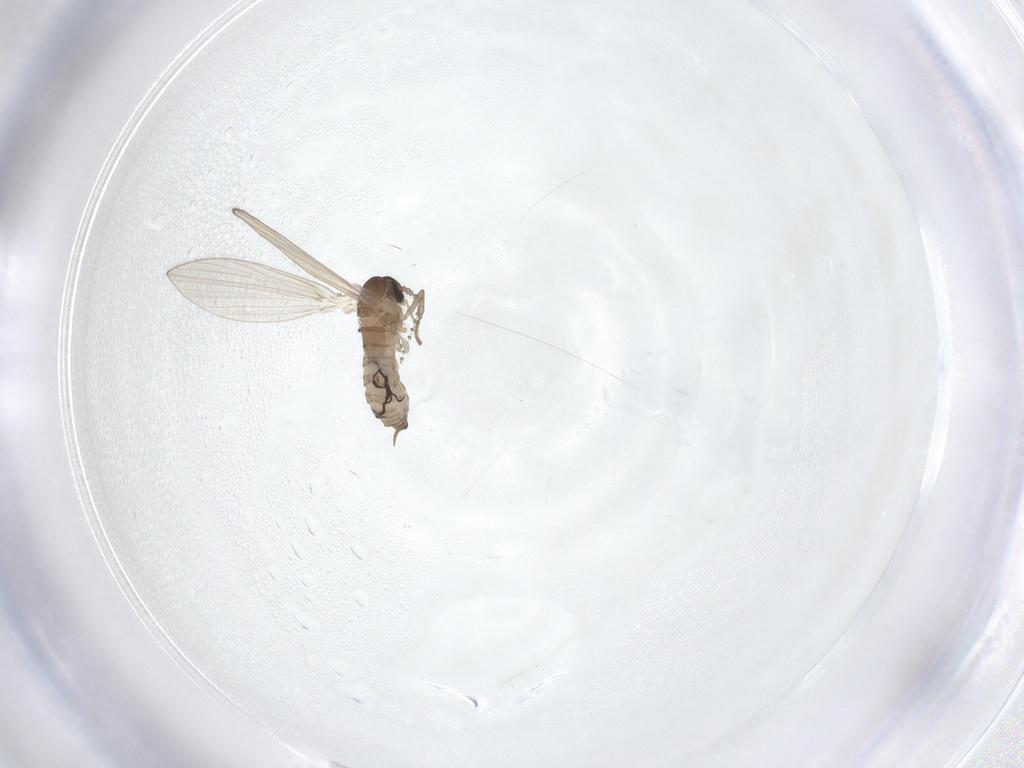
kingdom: Animalia
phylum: Arthropoda
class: Insecta
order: Diptera
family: Psychodidae
